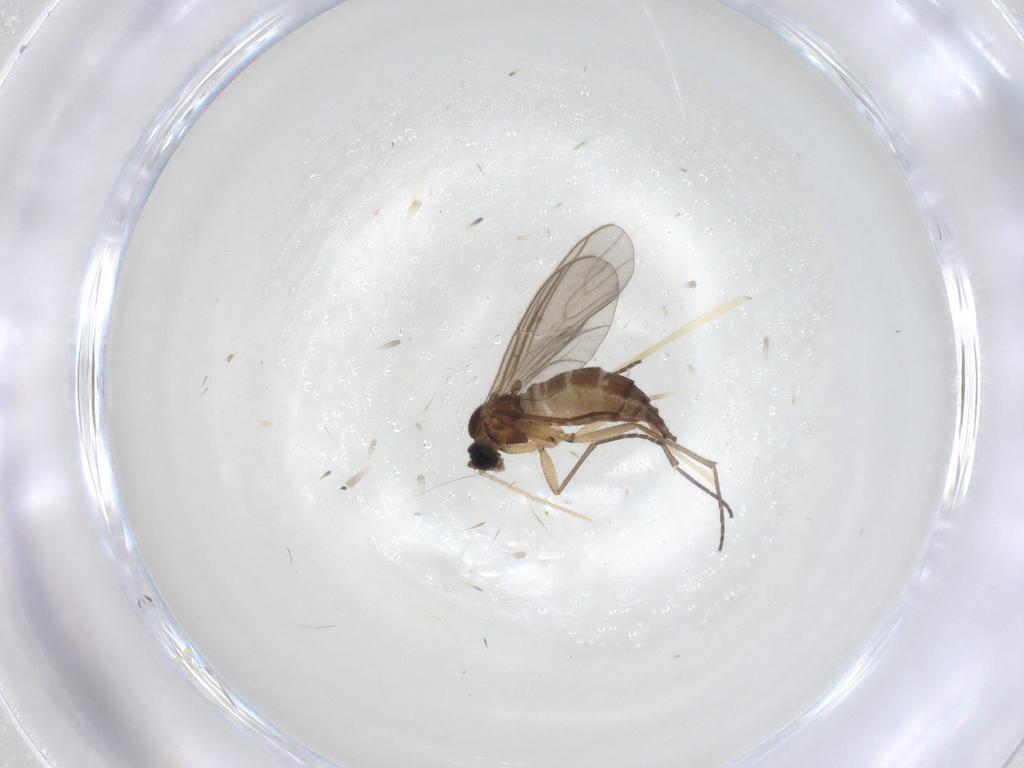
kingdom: Animalia
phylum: Arthropoda
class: Insecta
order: Diptera
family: Sciaridae
